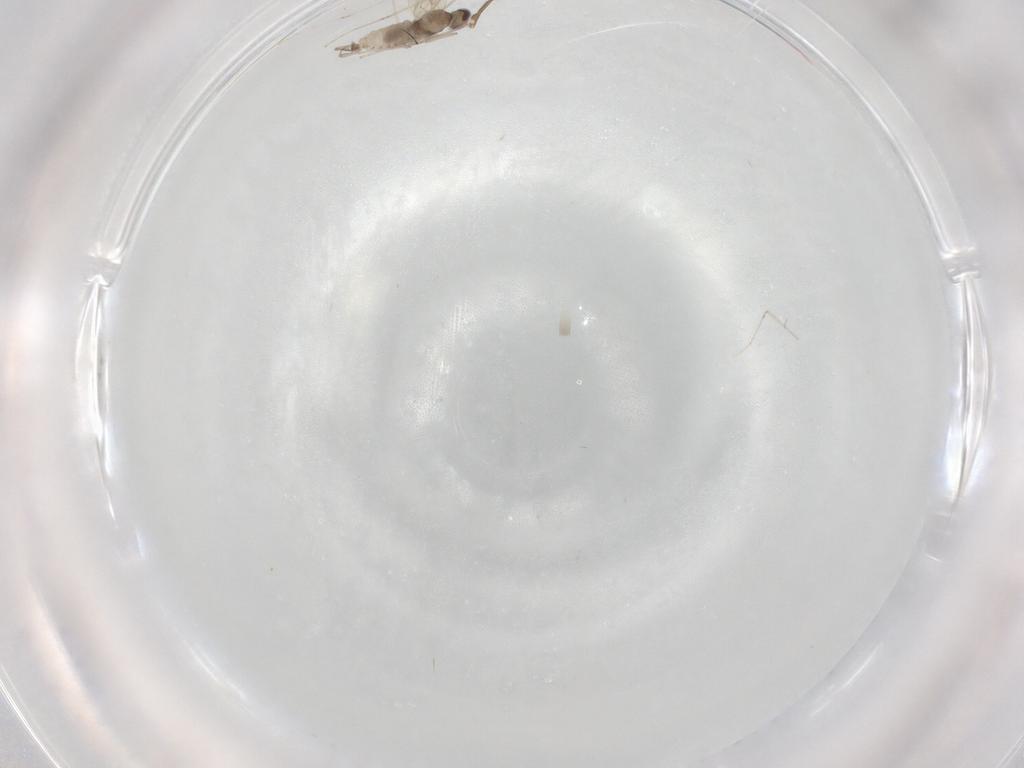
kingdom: Animalia
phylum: Arthropoda
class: Insecta
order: Diptera
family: Cecidomyiidae
